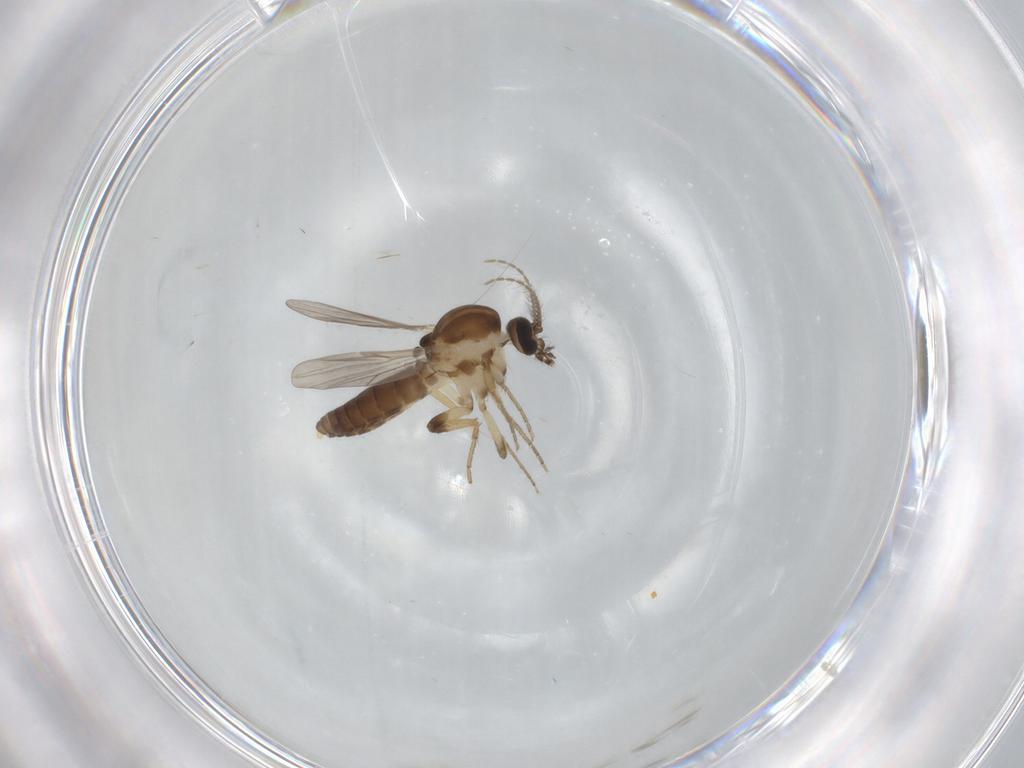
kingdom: Animalia
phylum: Arthropoda
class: Insecta
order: Diptera
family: Ceratopogonidae
